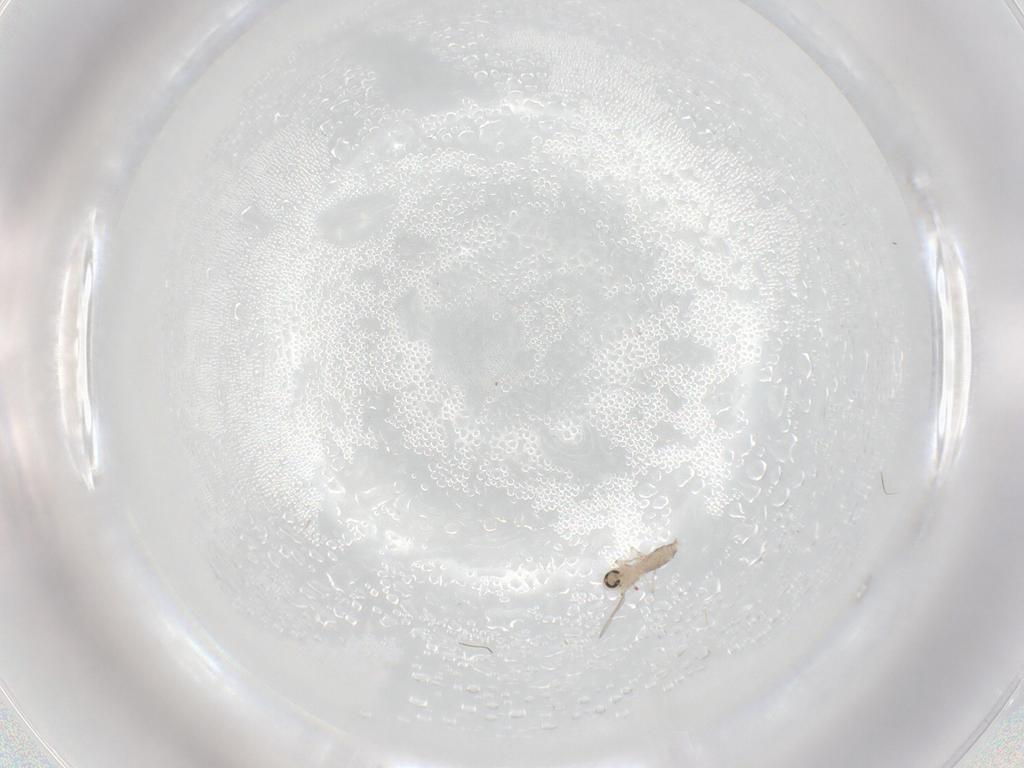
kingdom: Animalia
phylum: Arthropoda
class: Insecta
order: Diptera
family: Ceratopogonidae
